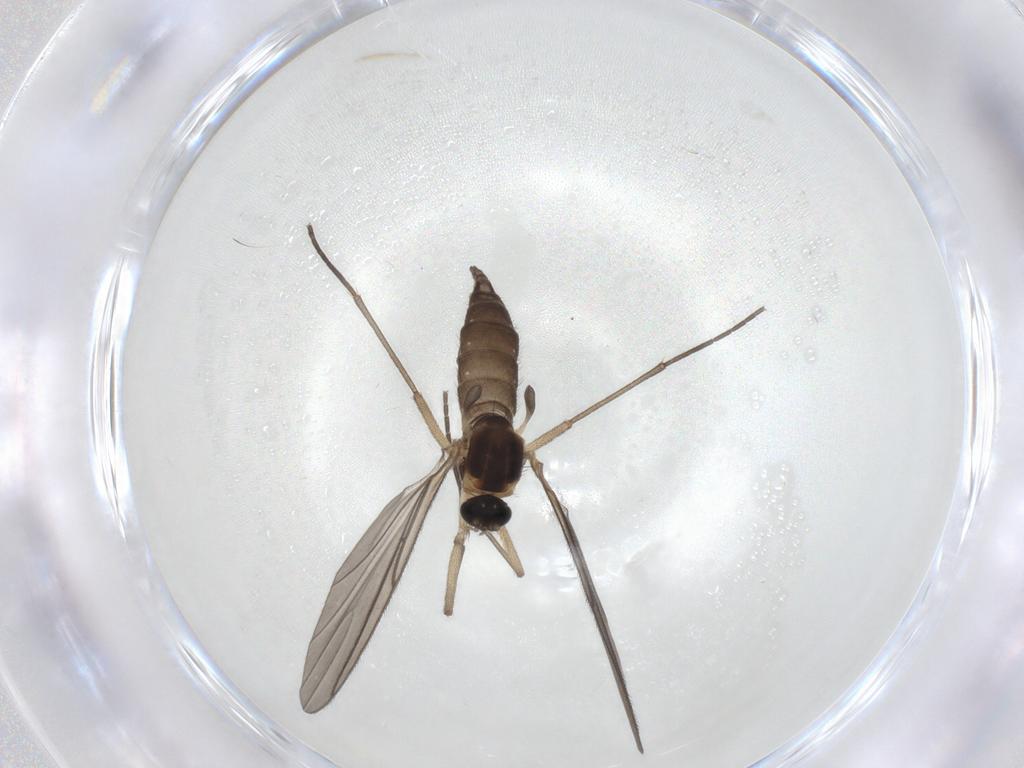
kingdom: Animalia
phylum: Arthropoda
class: Insecta
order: Diptera
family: Sciaridae
